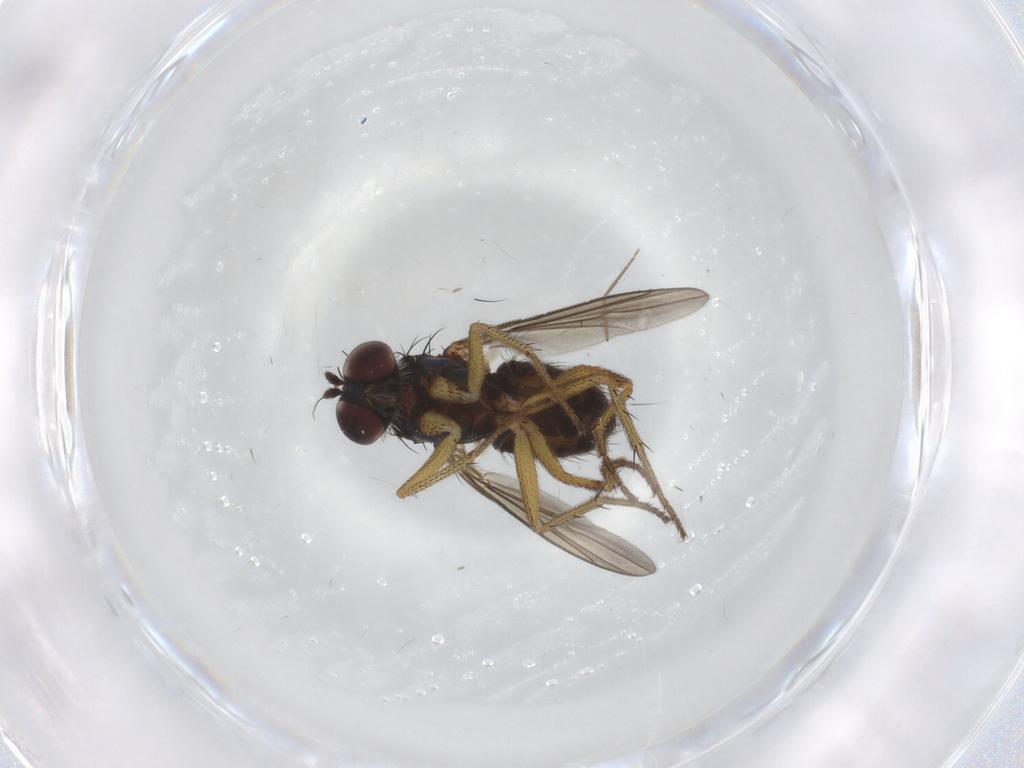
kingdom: Animalia
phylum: Arthropoda
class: Insecta
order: Diptera
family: Dolichopodidae
